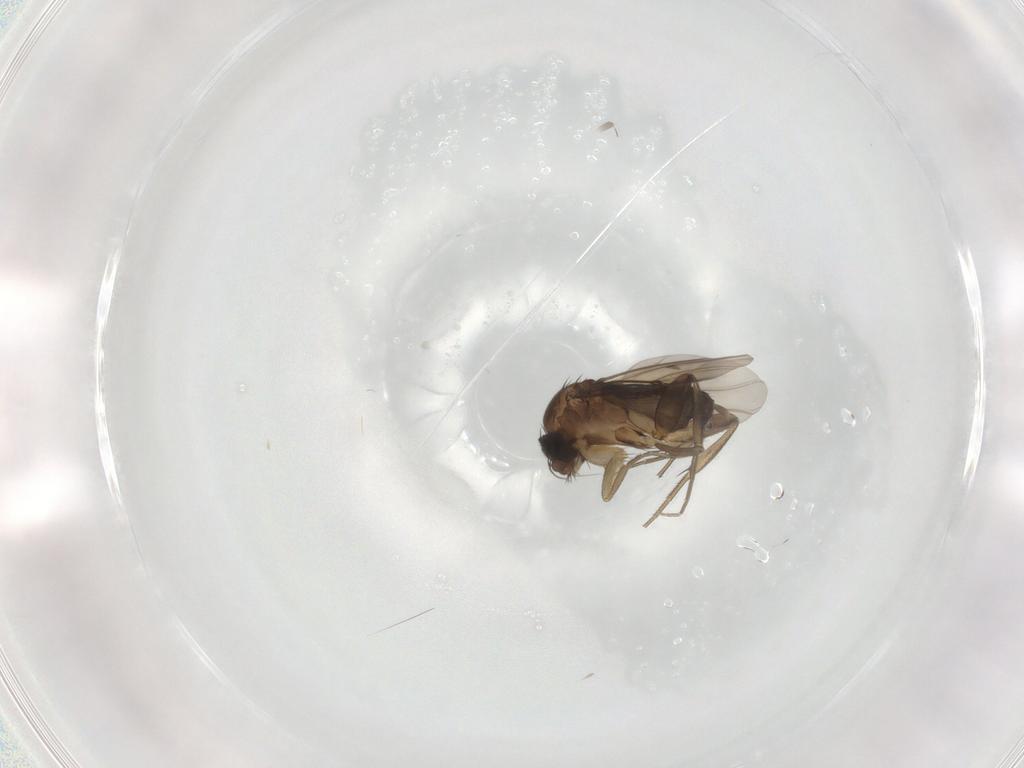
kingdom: Animalia
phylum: Arthropoda
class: Insecta
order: Diptera
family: Phoridae
